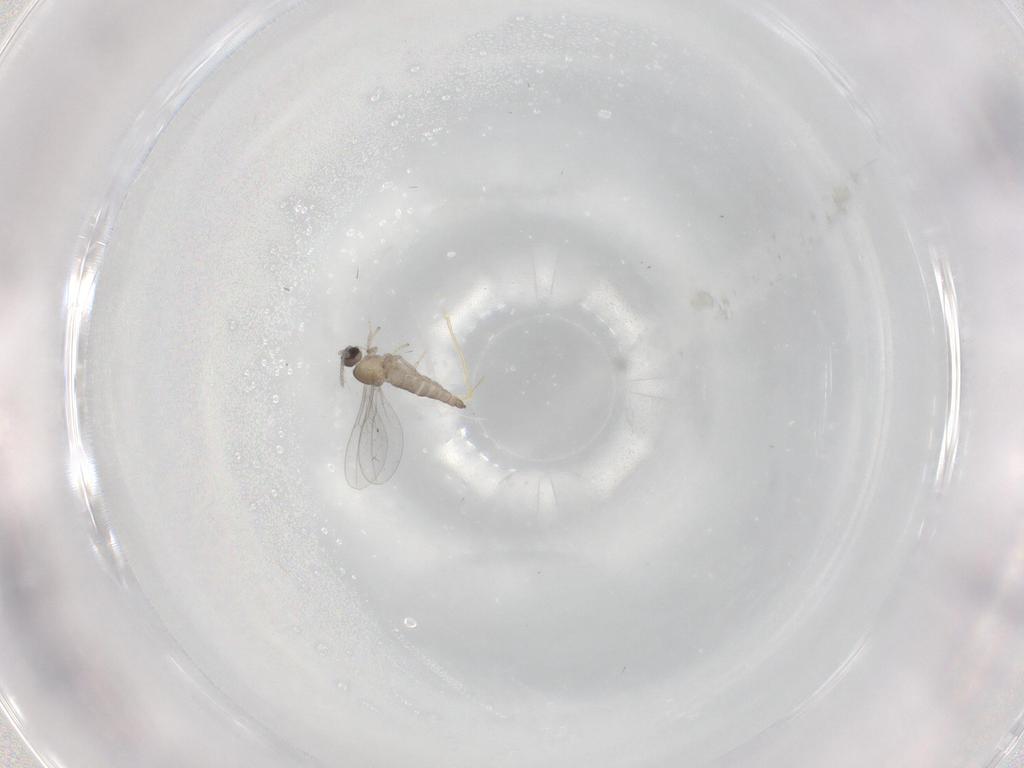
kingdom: Animalia
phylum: Arthropoda
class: Insecta
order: Diptera
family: Cecidomyiidae
